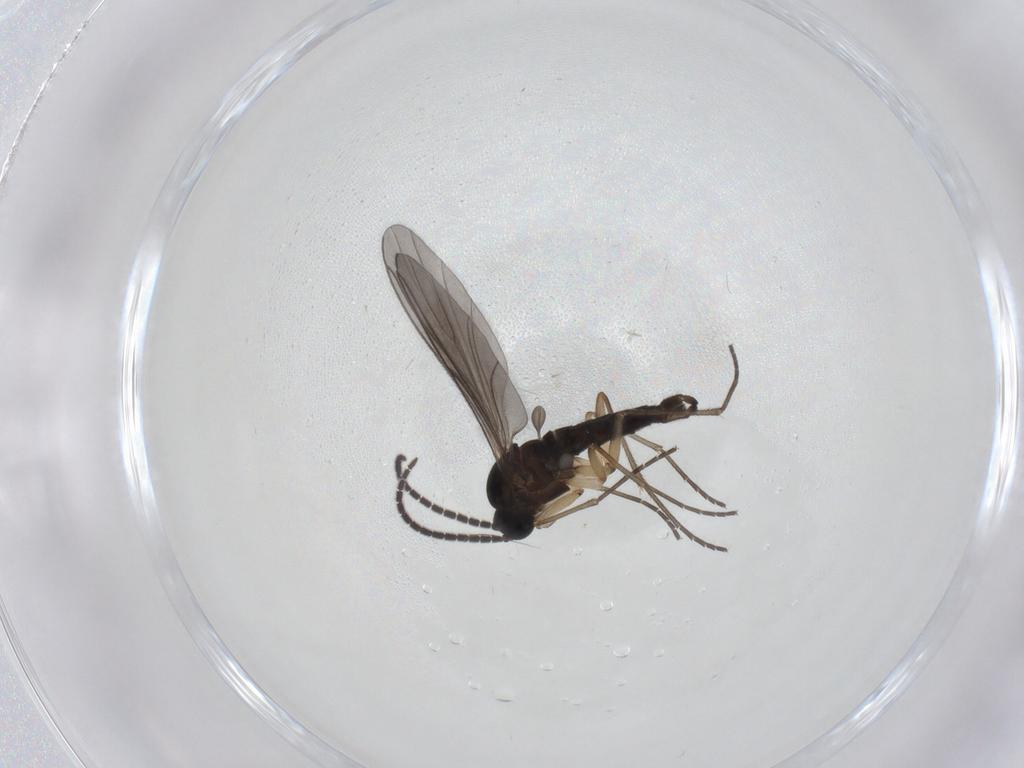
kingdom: Animalia
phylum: Arthropoda
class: Insecta
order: Diptera
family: Sciaridae
